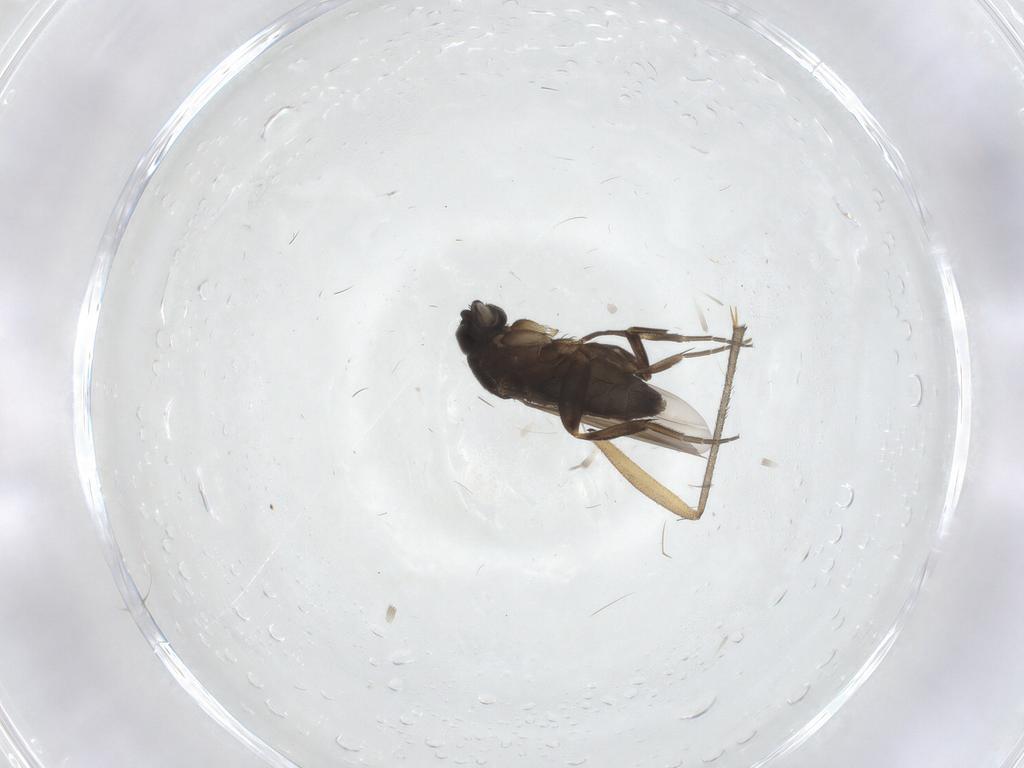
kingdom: Animalia
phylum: Arthropoda
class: Insecta
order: Diptera
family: Phoridae
